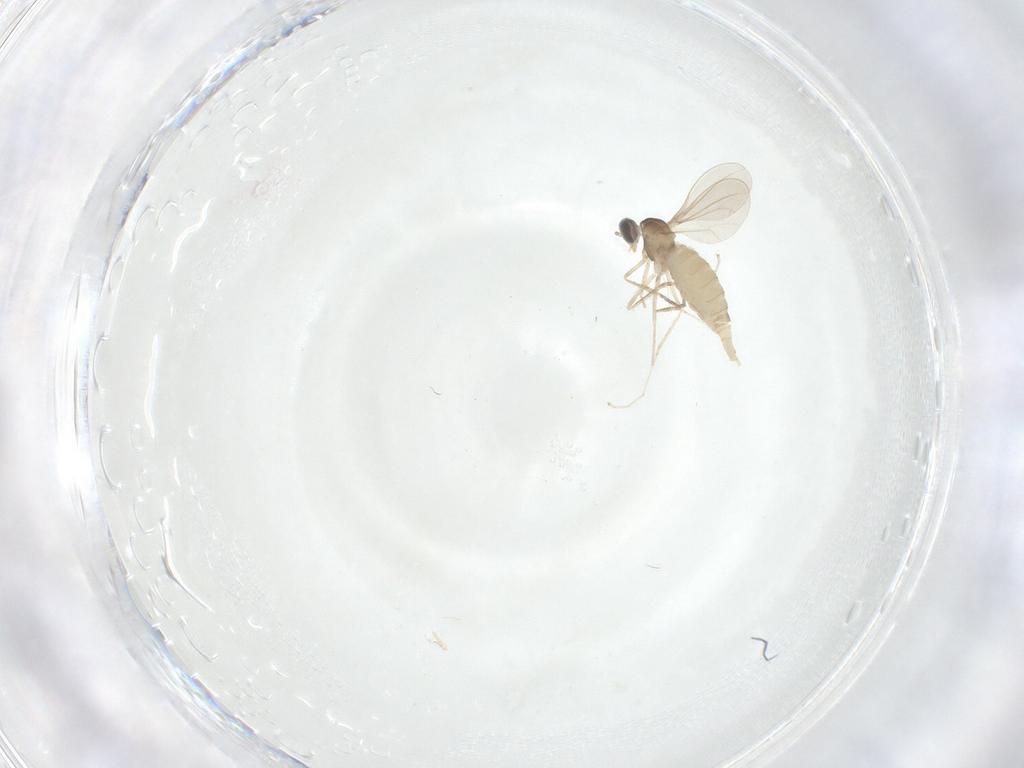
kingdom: Animalia
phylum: Arthropoda
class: Insecta
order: Diptera
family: Cecidomyiidae
